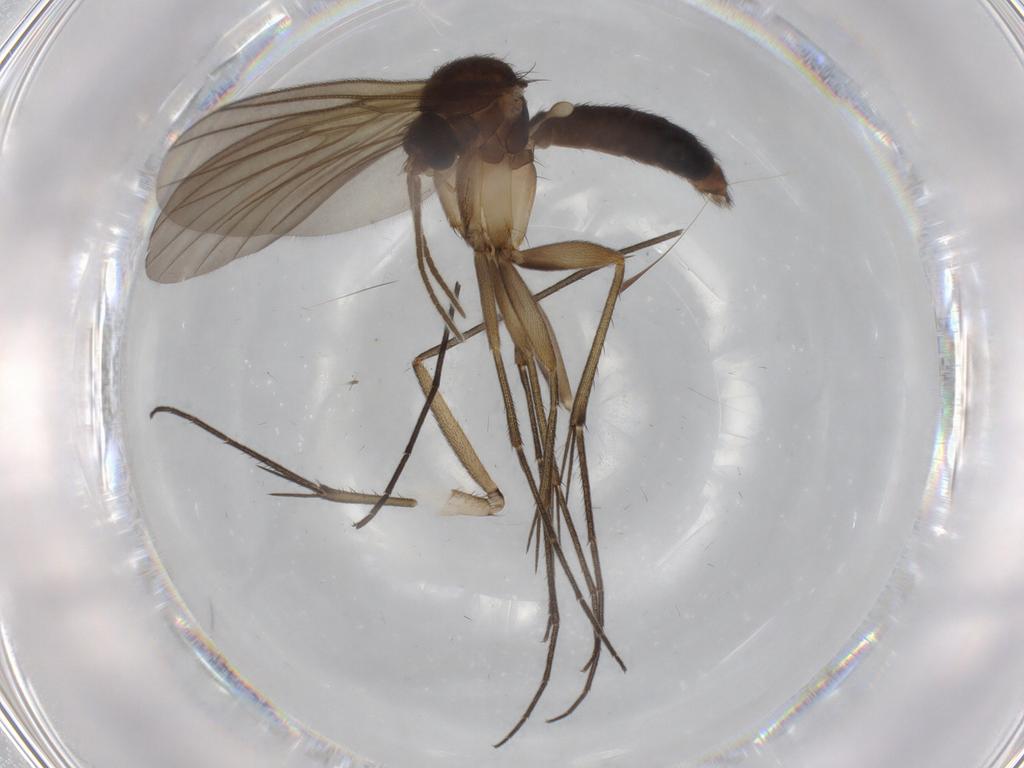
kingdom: Animalia
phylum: Arthropoda
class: Insecta
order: Diptera
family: Mycetophilidae
